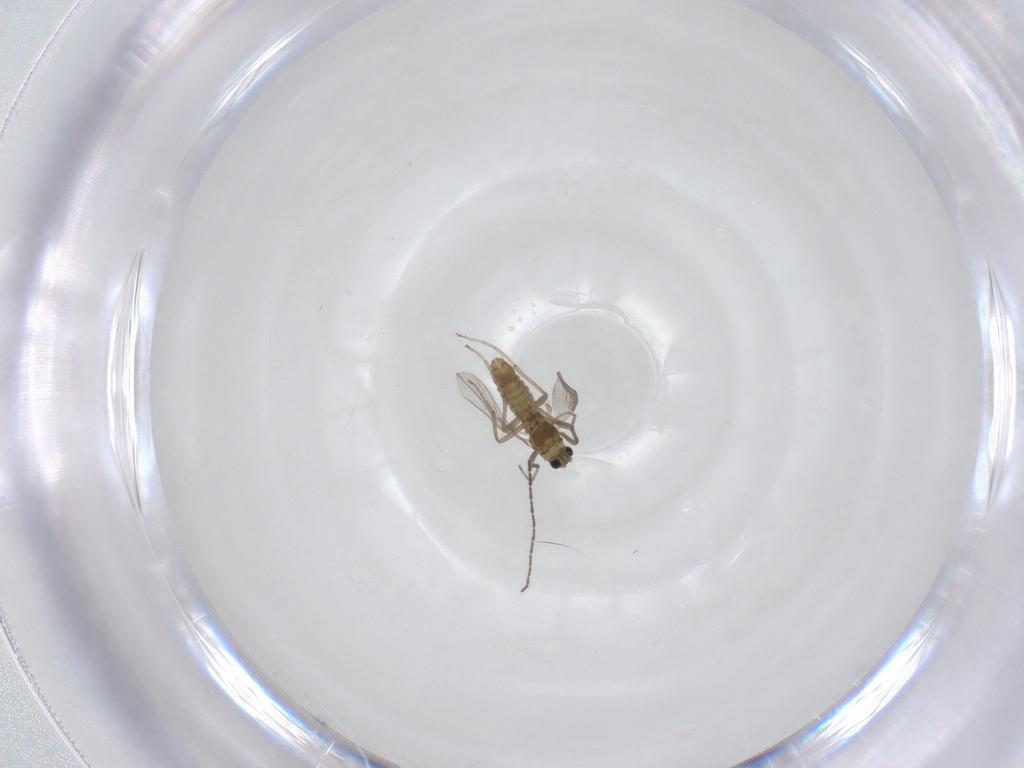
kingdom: Animalia
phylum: Arthropoda
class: Insecta
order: Diptera
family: Chironomidae
